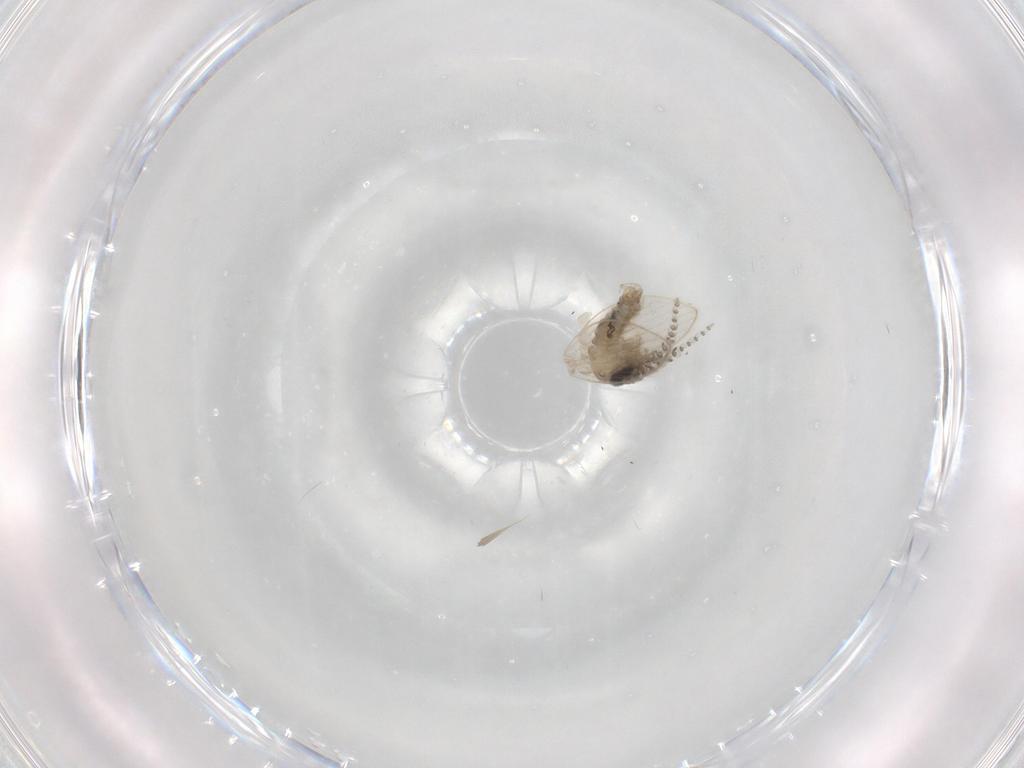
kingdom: Animalia
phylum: Arthropoda
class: Insecta
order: Diptera
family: Psychodidae
